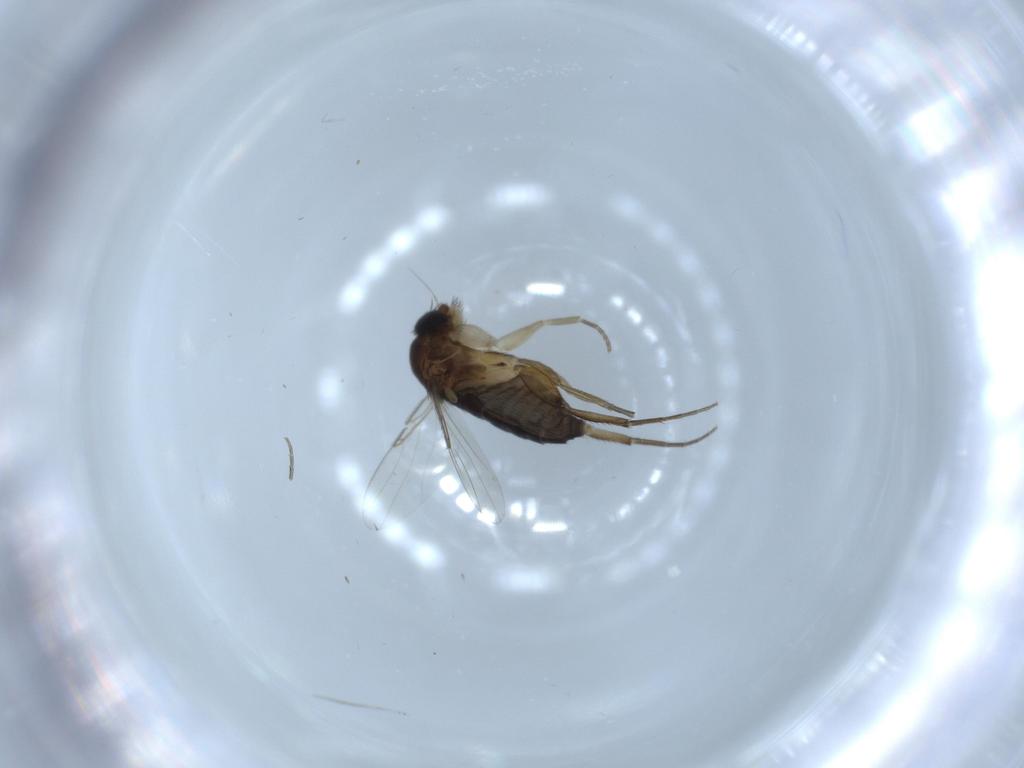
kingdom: Animalia
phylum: Arthropoda
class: Insecta
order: Diptera
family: Phoridae
